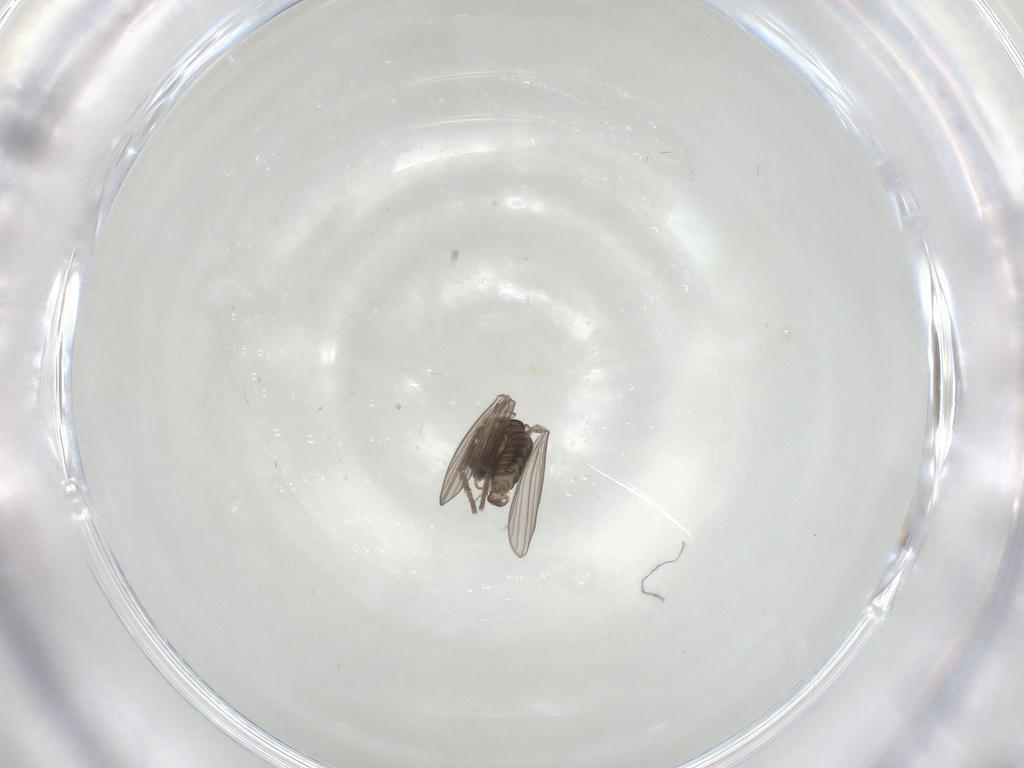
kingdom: Animalia
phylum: Arthropoda
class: Insecta
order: Diptera
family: Psychodidae
